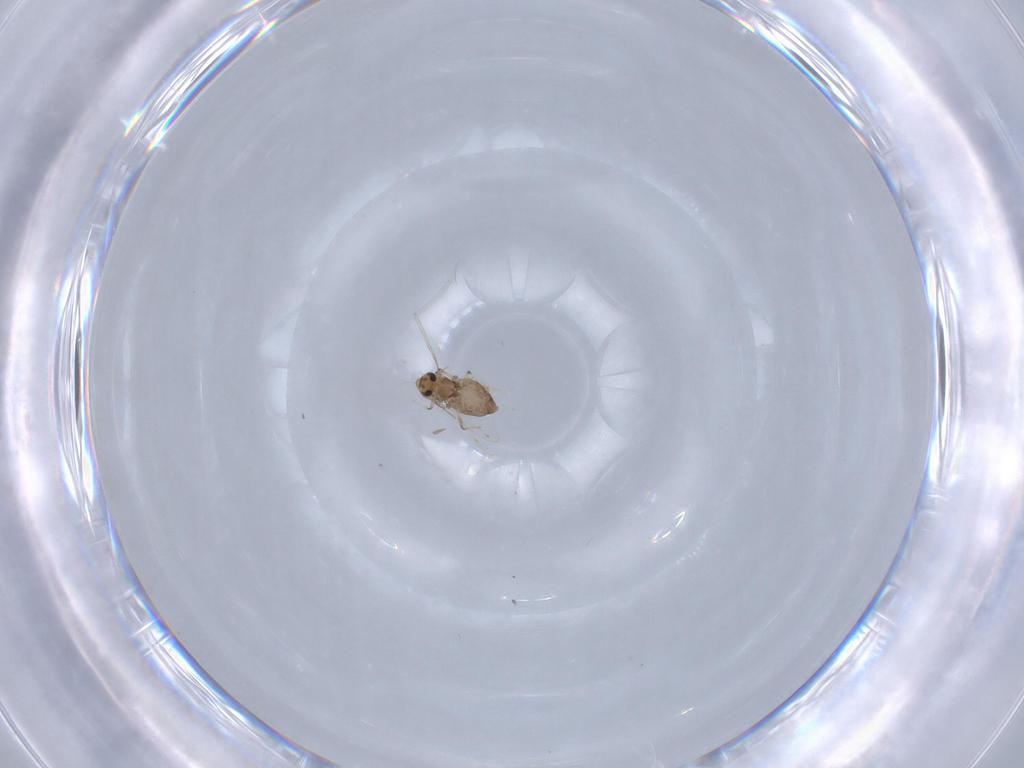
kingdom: Animalia
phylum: Arthropoda
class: Insecta
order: Diptera
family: Chironomidae
